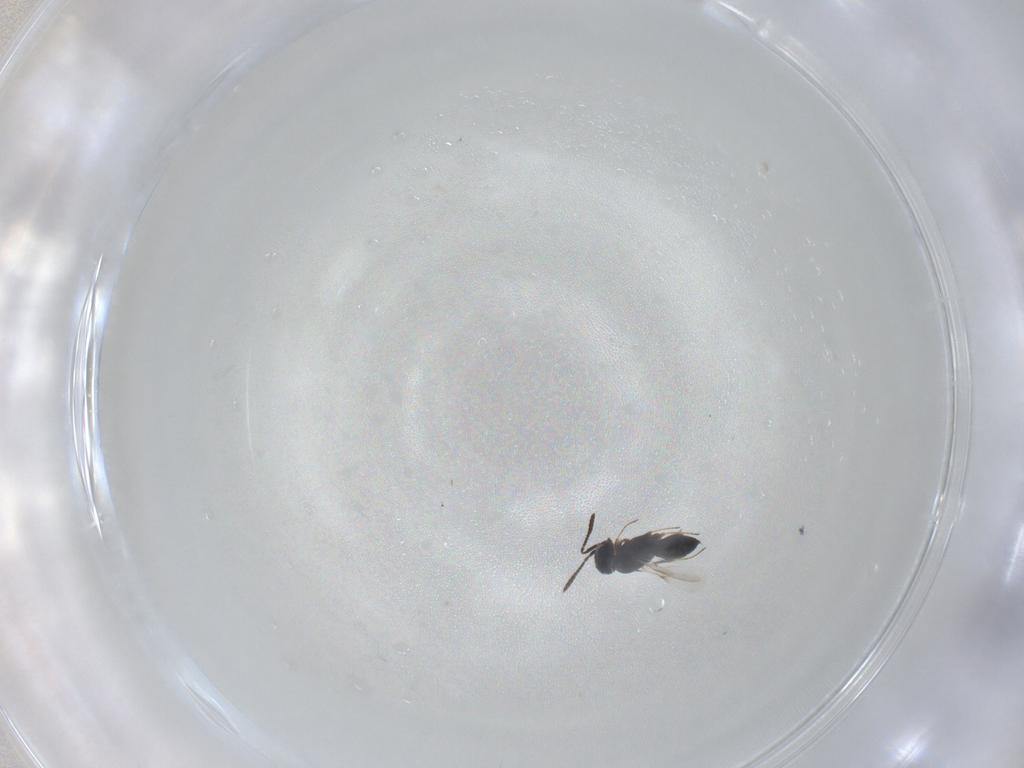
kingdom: Animalia
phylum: Arthropoda
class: Insecta
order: Hymenoptera
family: Scelionidae
